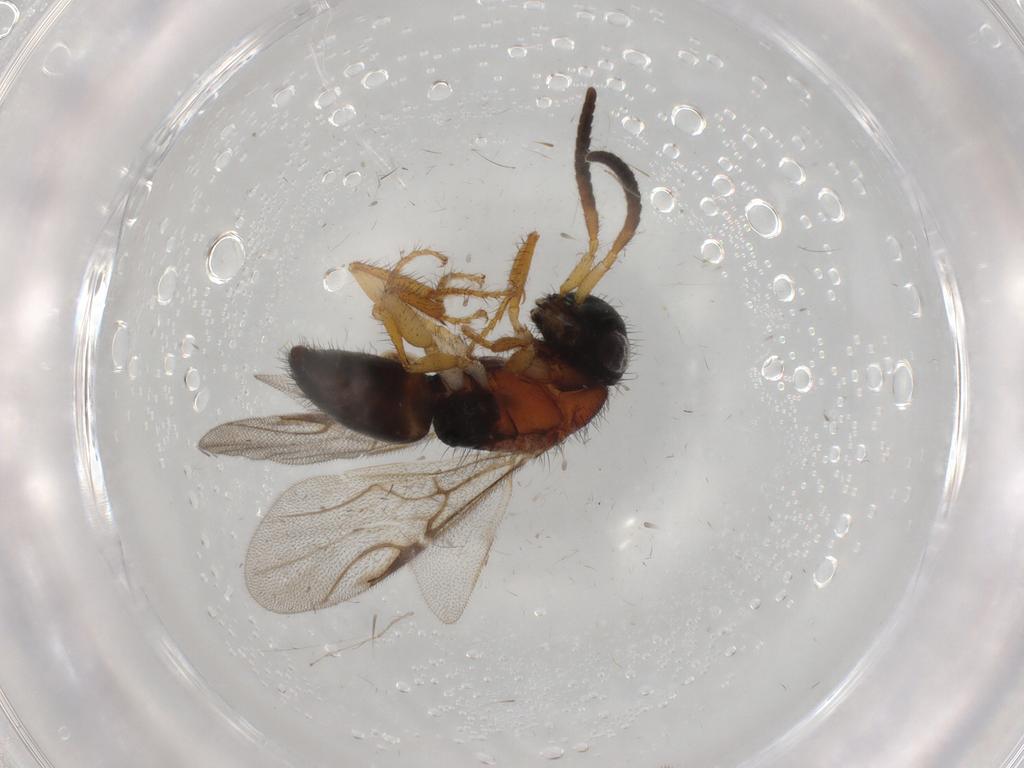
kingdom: Animalia
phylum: Arthropoda
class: Insecta
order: Hymenoptera
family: Chrysididae
